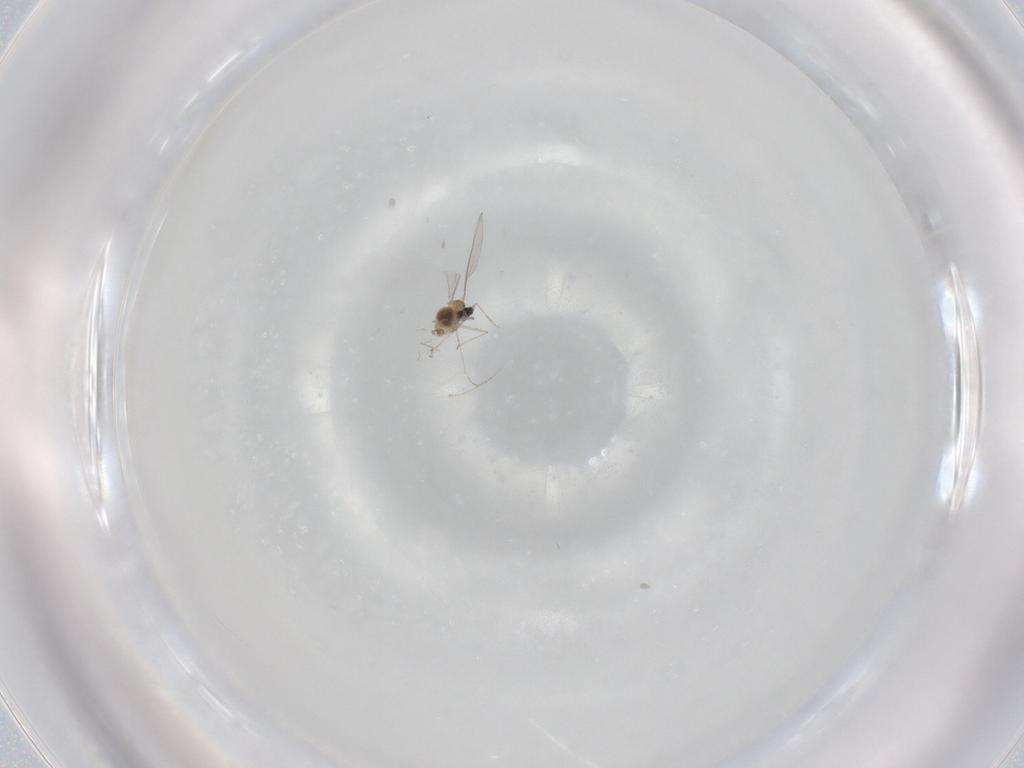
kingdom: Animalia
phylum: Arthropoda
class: Insecta
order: Diptera
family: Cecidomyiidae
